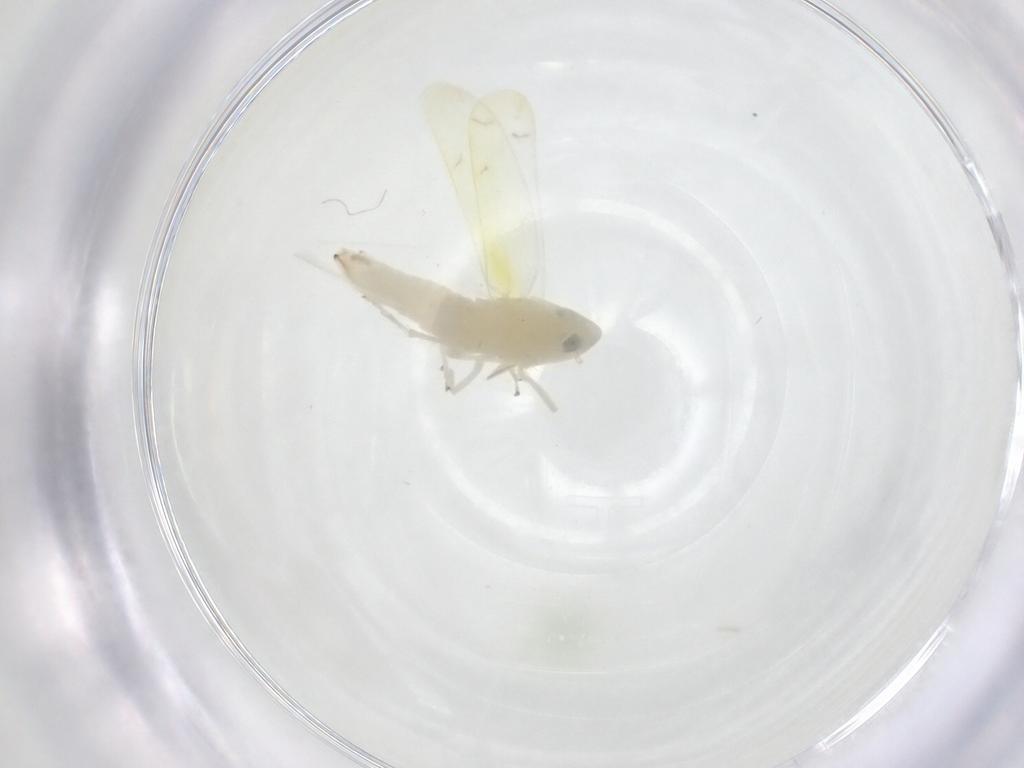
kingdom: Animalia
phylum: Arthropoda
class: Insecta
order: Hemiptera
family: Cicadellidae
